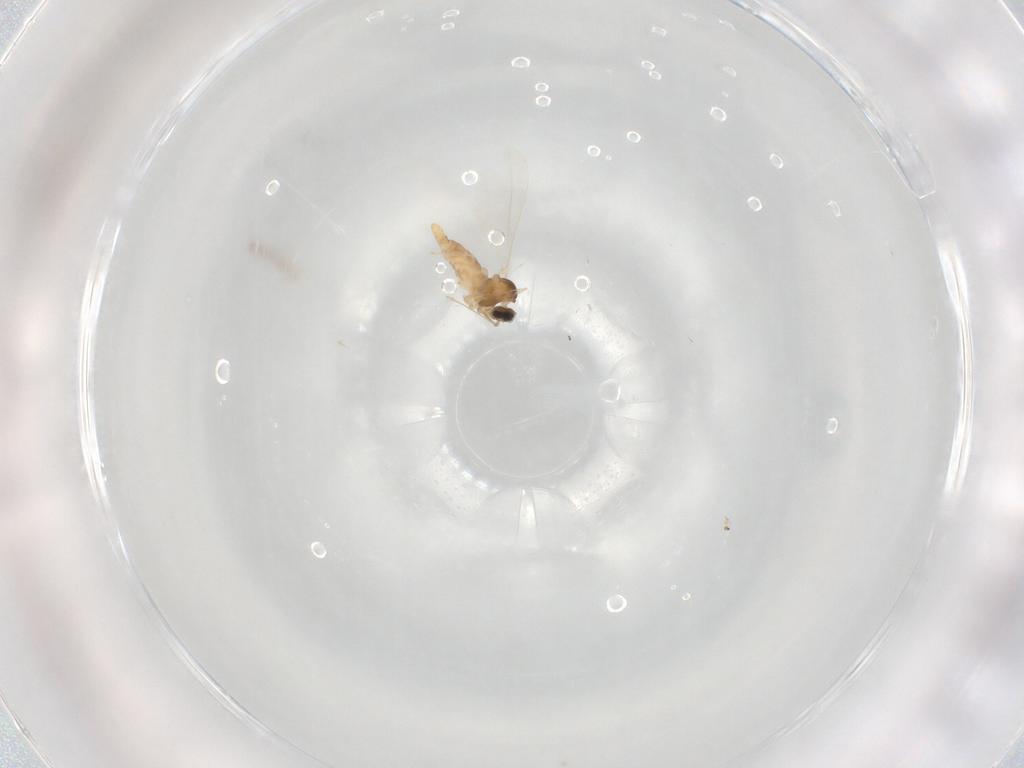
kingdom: Animalia
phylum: Arthropoda
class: Insecta
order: Diptera
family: Cecidomyiidae
